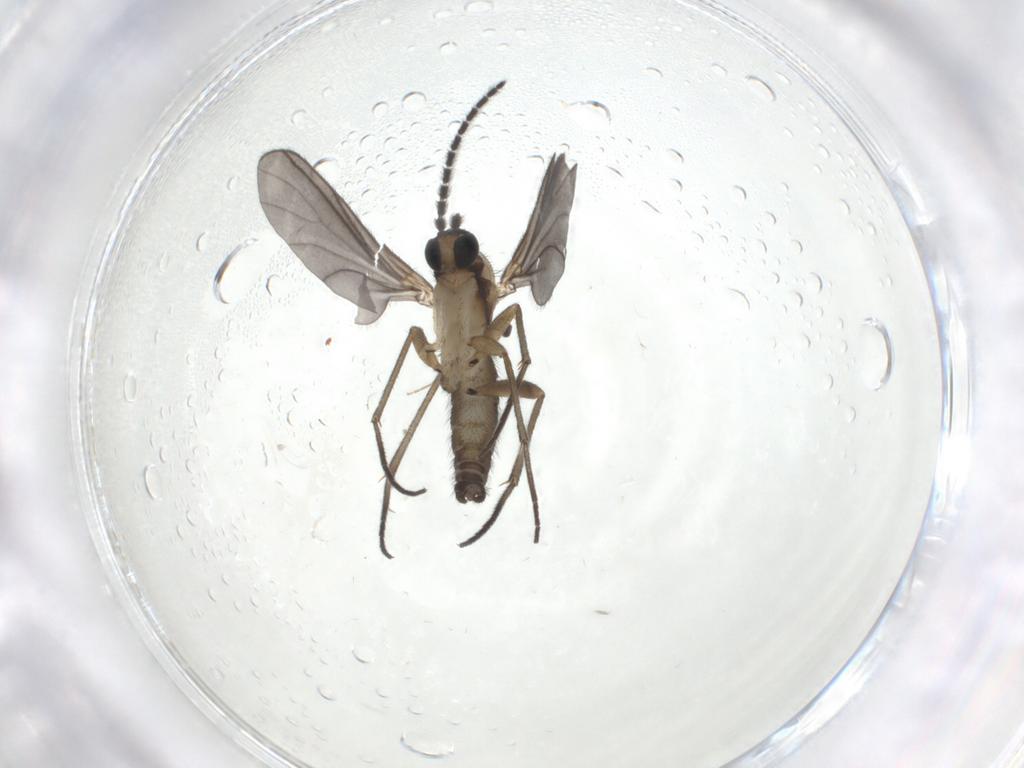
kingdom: Animalia
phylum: Arthropoda
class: Insecta
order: Diptera
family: Sciaridae
